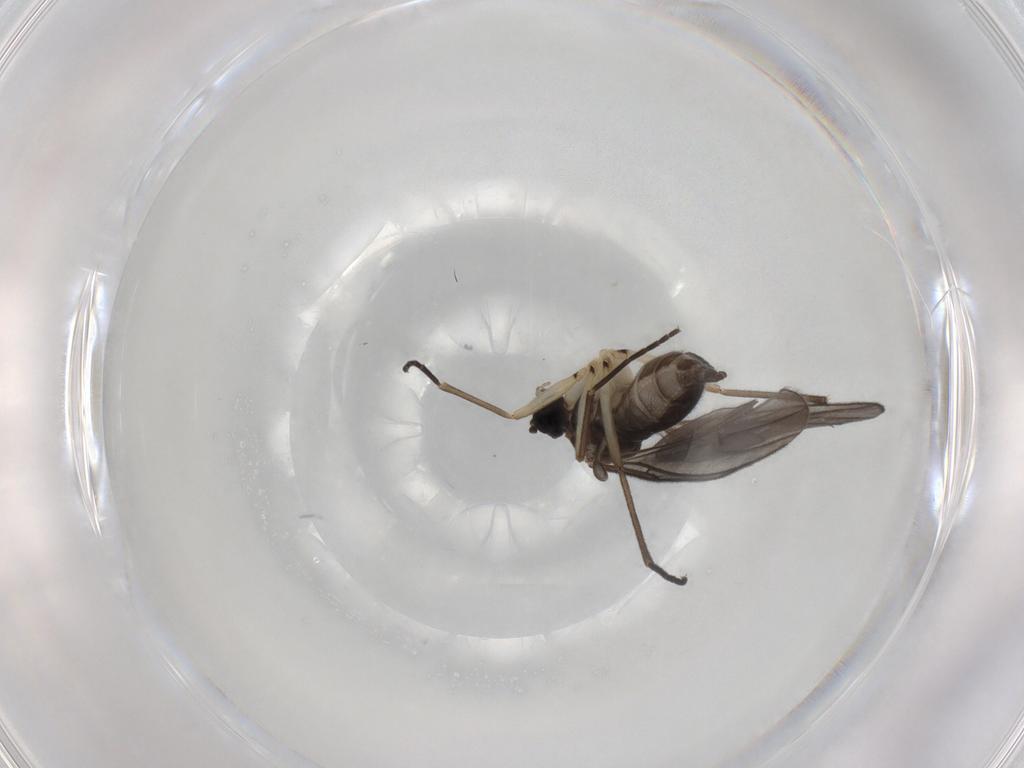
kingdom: Animalia
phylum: Arthropoda
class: Insecta
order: Diptera
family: Sciaridae
